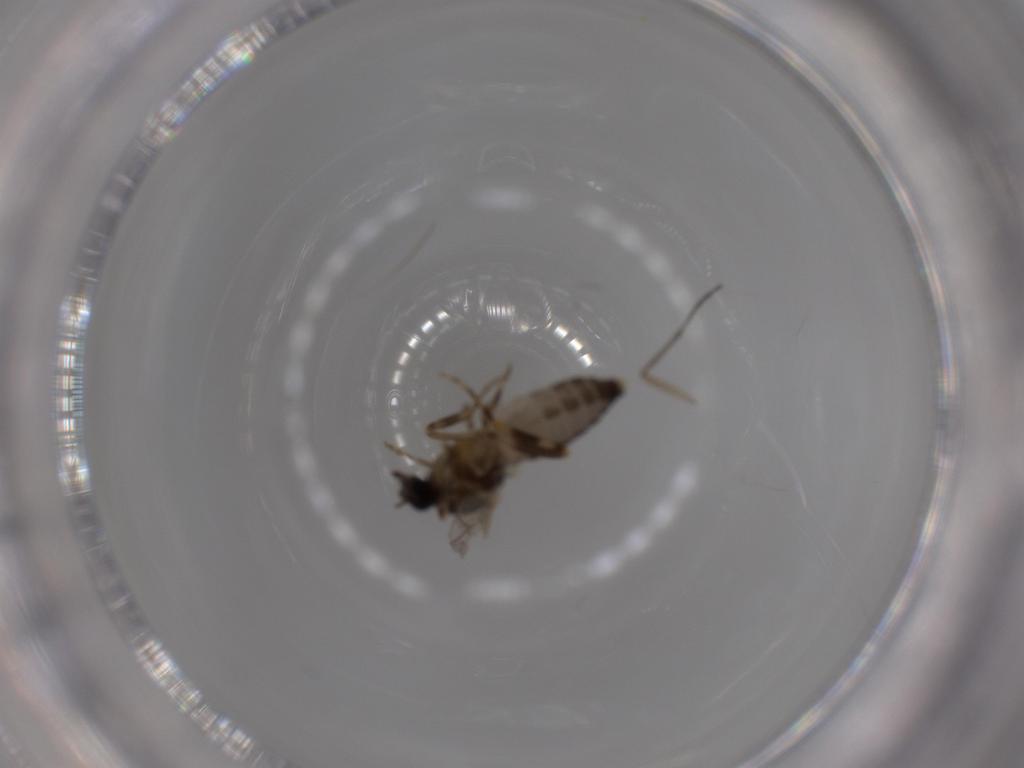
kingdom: Animalia
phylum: Arthropoda
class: Insecta
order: Diptera
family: Ceratopogonidae
